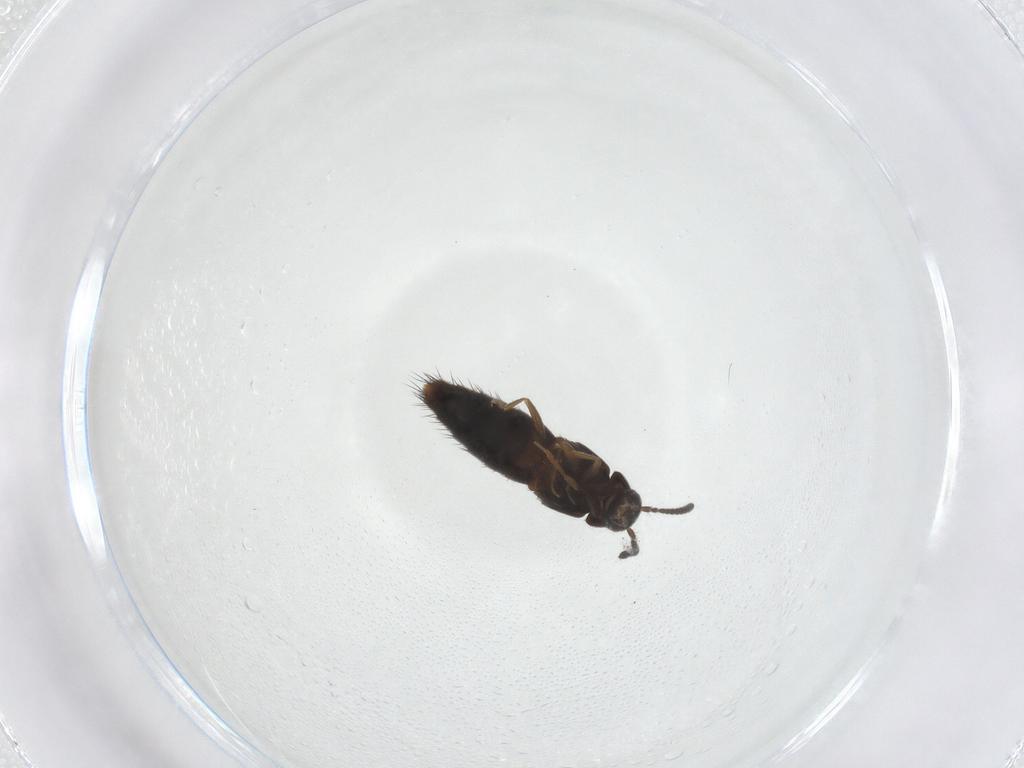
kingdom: Animalia
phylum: Arthropoda
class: Insecta
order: Coleoptera
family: Staphylinidae
